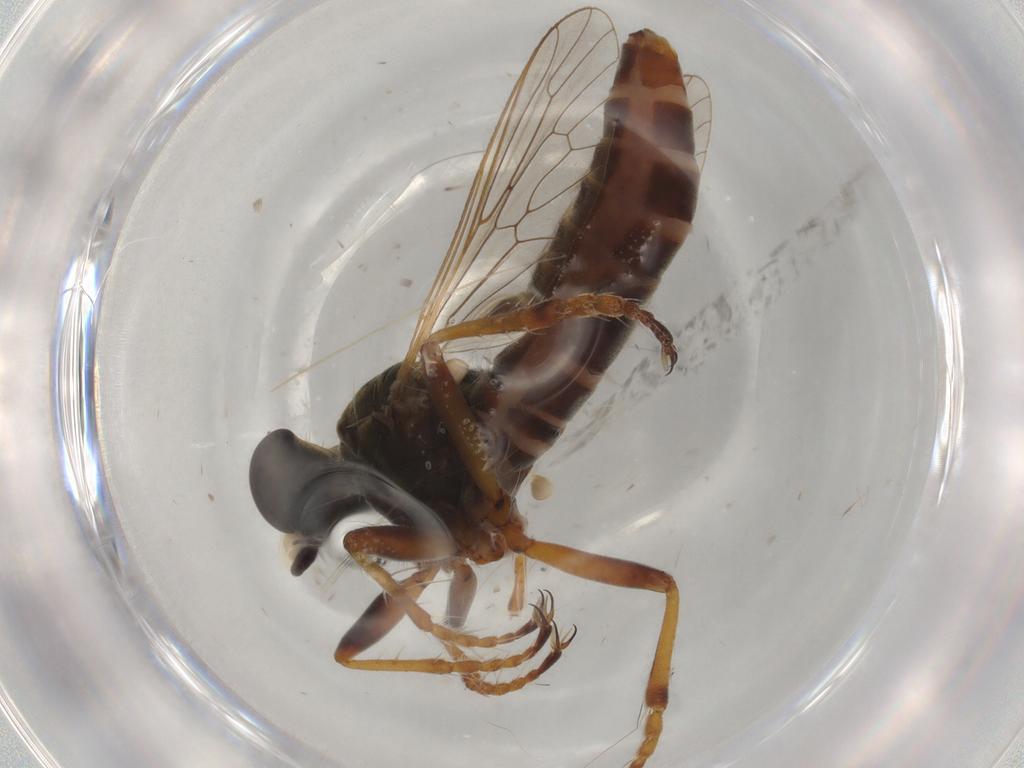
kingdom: Animalia
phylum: Arthropoda
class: Insecta
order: Diptera
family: Asilidae
